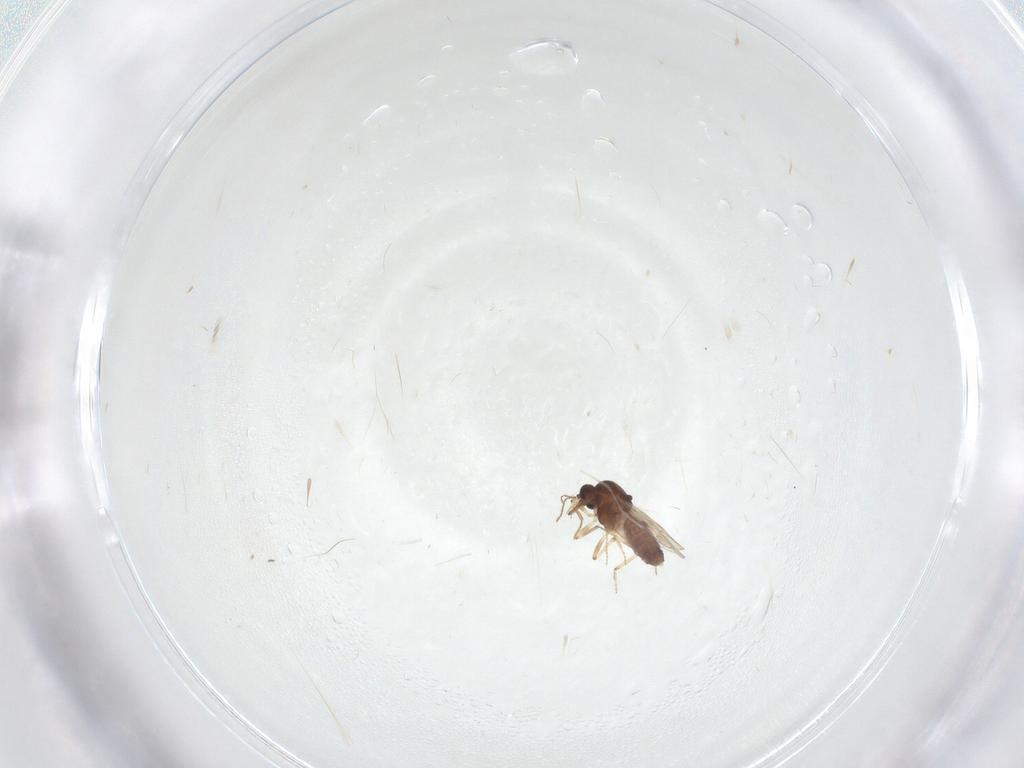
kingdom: Animalia
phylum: Arthropoda
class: Insecta
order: Diptera
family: Cecidomyiidae
